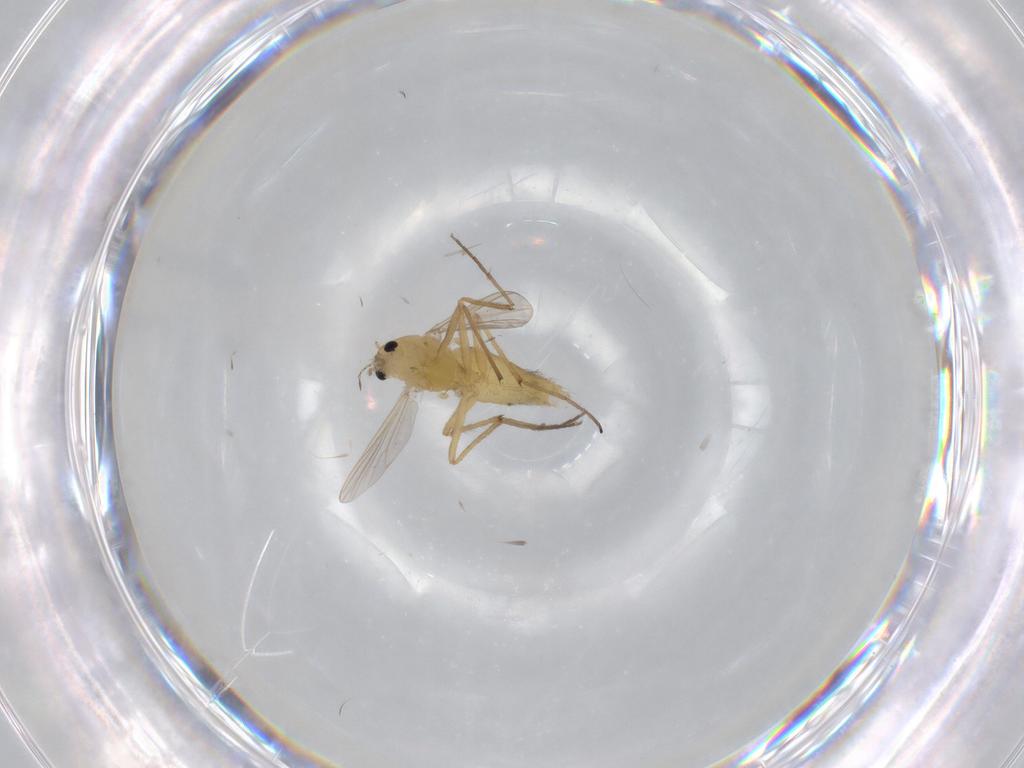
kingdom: Animalia
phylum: Arthropoda
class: Insecta
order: Diptera
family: Chironomidae
